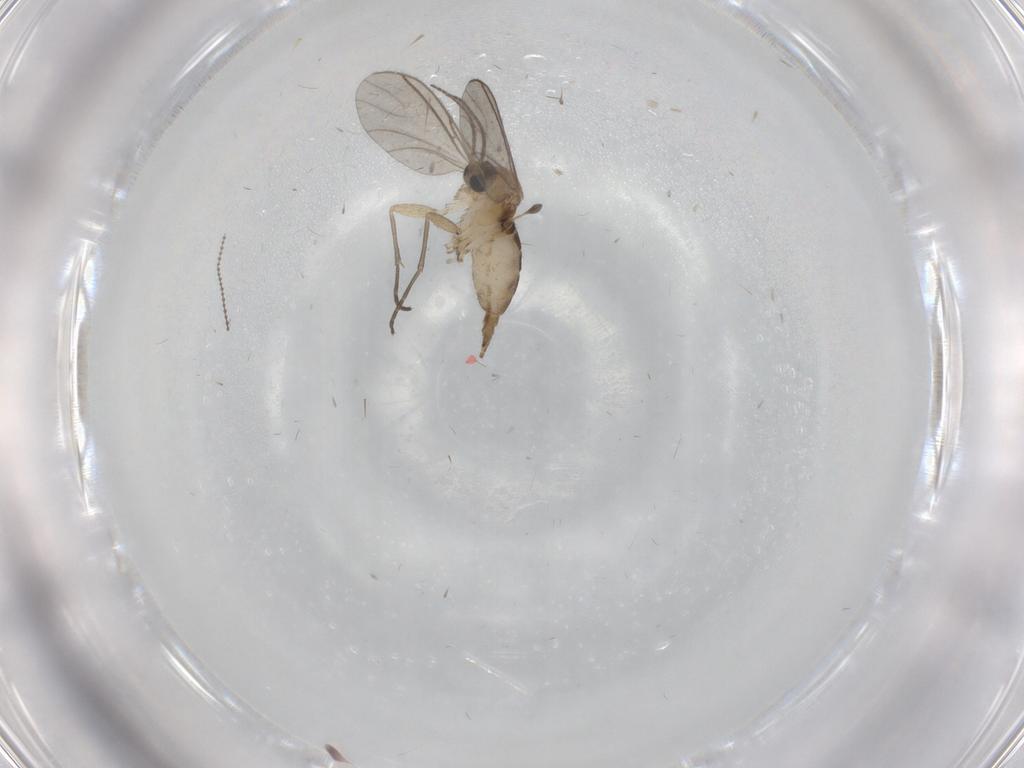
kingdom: Animalia
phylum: Arthropoda
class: Insecta
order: Diptera
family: Cecidomyiidae
